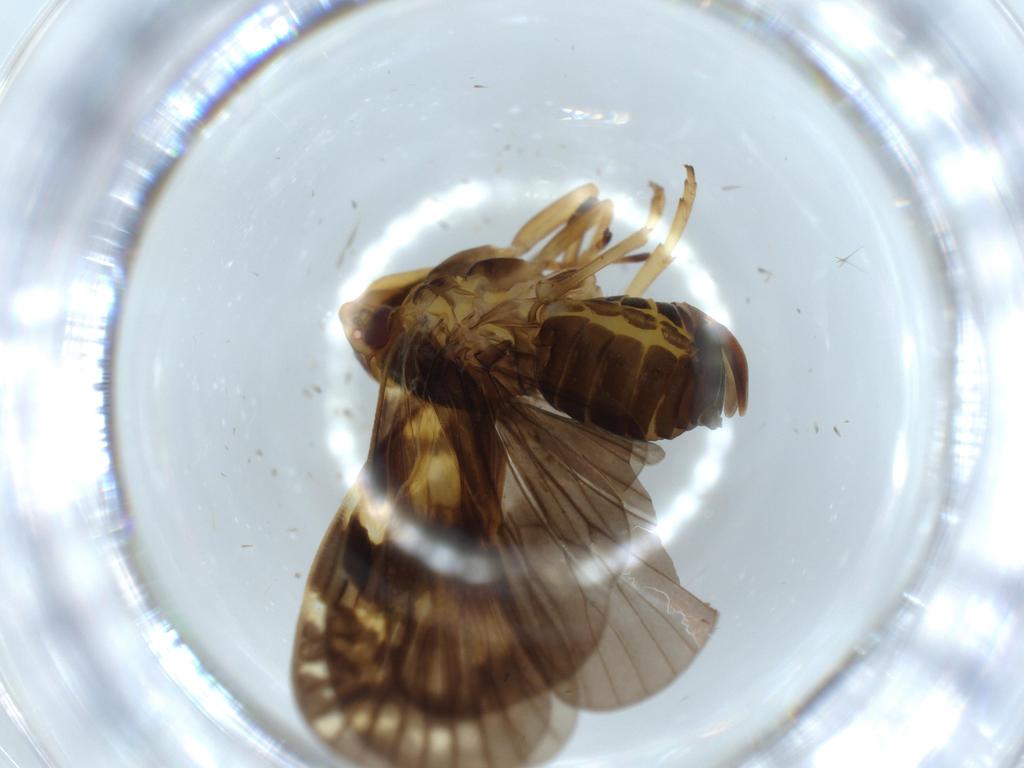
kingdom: Animalia
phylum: Arthropoda
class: Insecta
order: Hemiptera
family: Cixiidae
